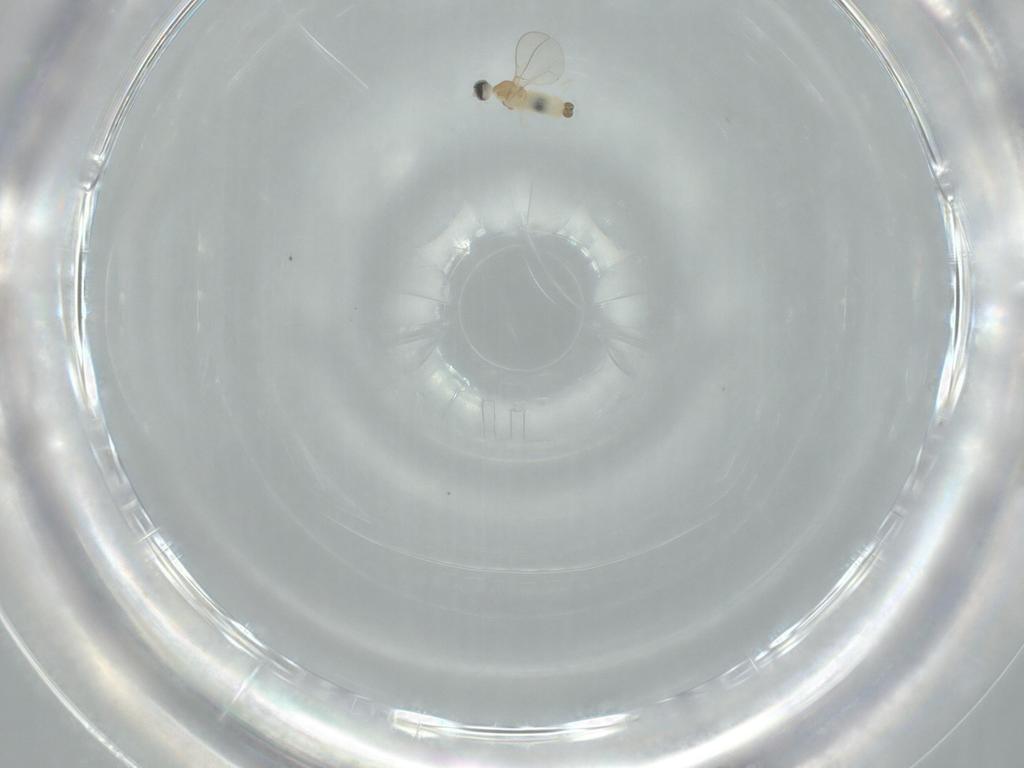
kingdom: Animalia
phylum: Arthropoda
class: Insecta
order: Diptera
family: Cecidomyiidae
